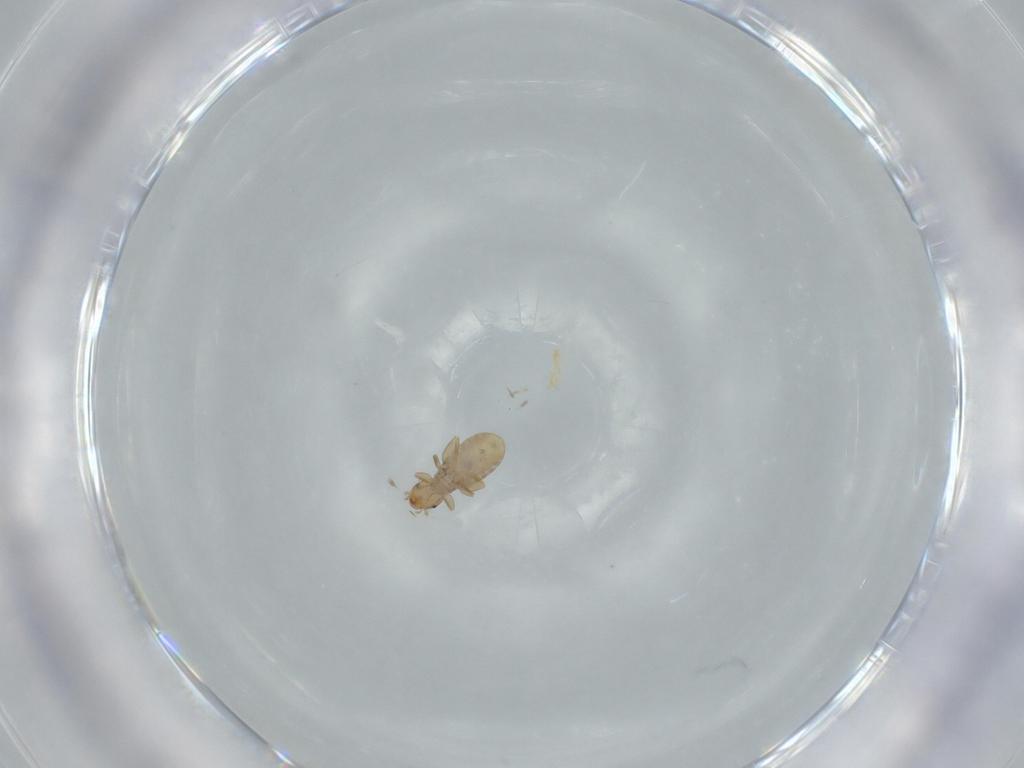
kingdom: Animalia
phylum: Arthropoda
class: Insecta
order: Psocodea
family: Liposcelididae
